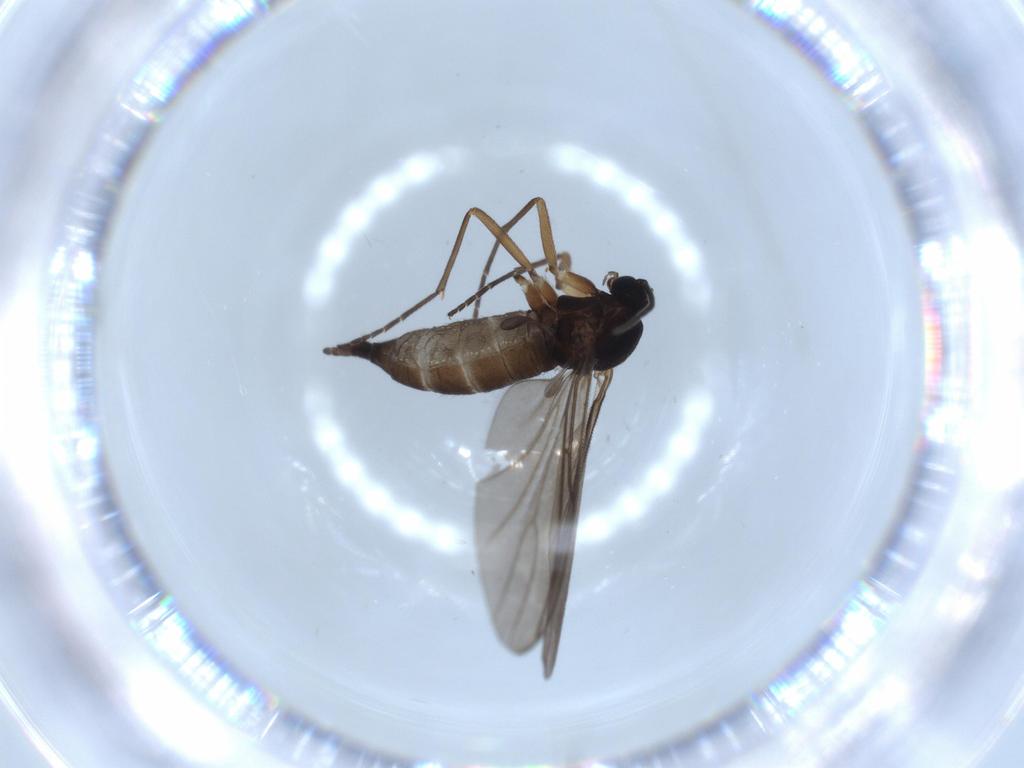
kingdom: Animalia
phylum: Arthropoda
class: Insecta
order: Diptera
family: Sciaridae
